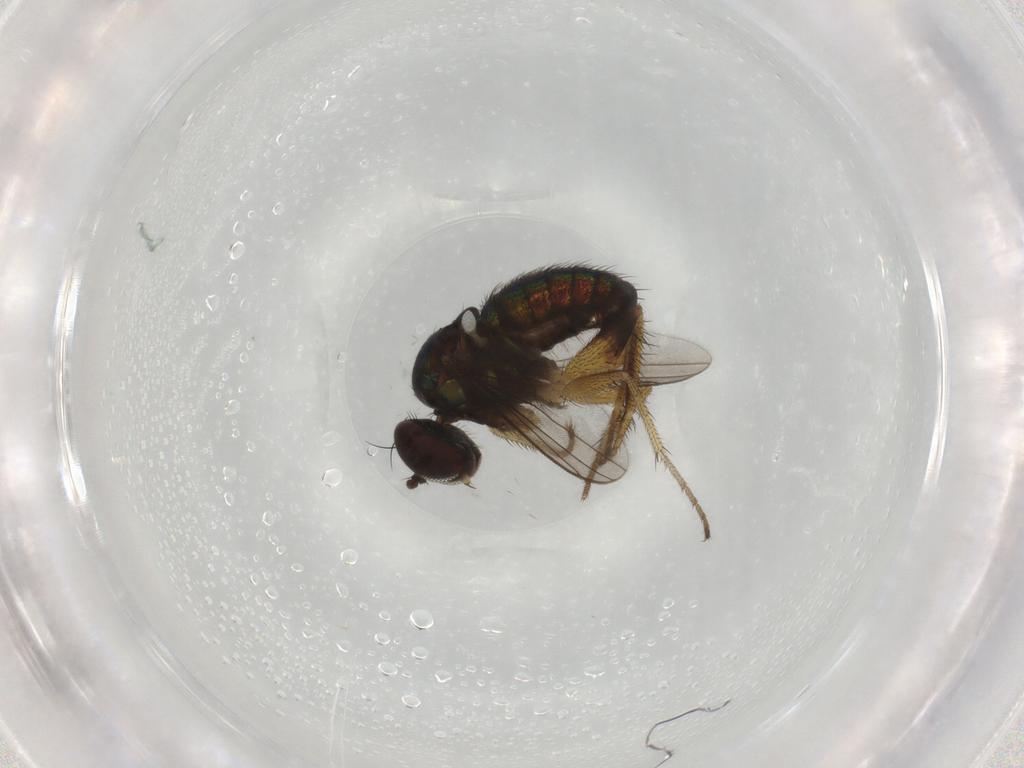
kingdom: Animalia
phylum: Arthropoda
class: Insecta
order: Diptera
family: Dolichopodidae
